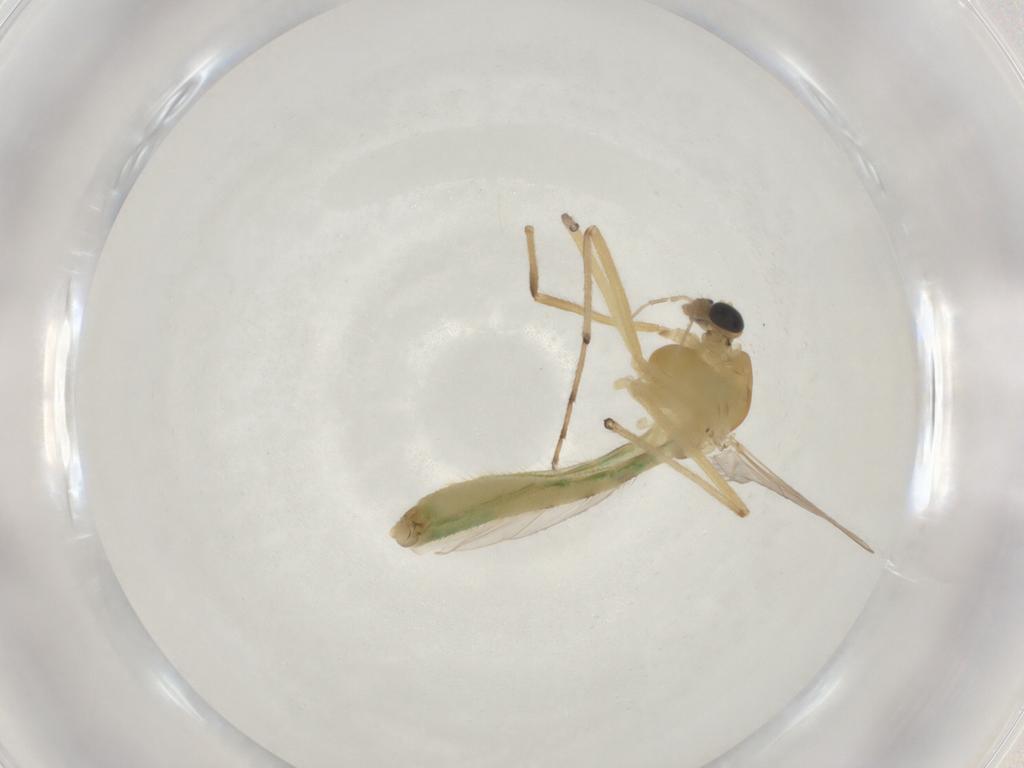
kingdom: Animalia
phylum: Arthropoda
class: Insecta
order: Diptera
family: Chironomidae
